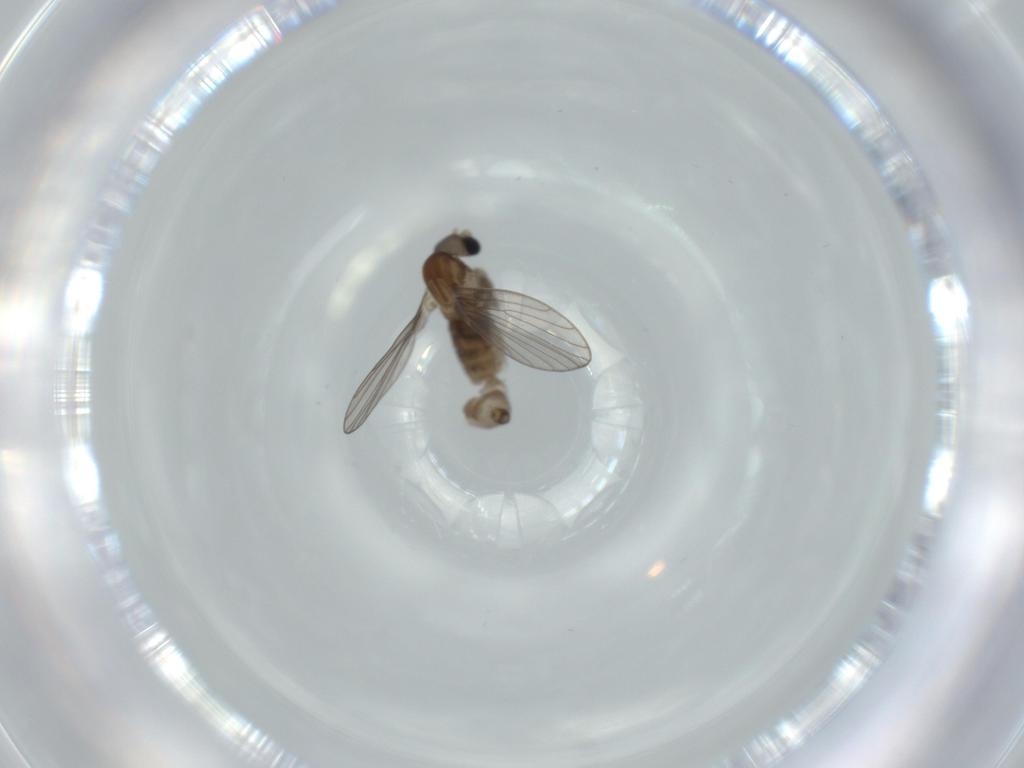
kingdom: Animalia
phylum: Arthropoda
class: Insecta
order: Diptera
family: Psychodidae
